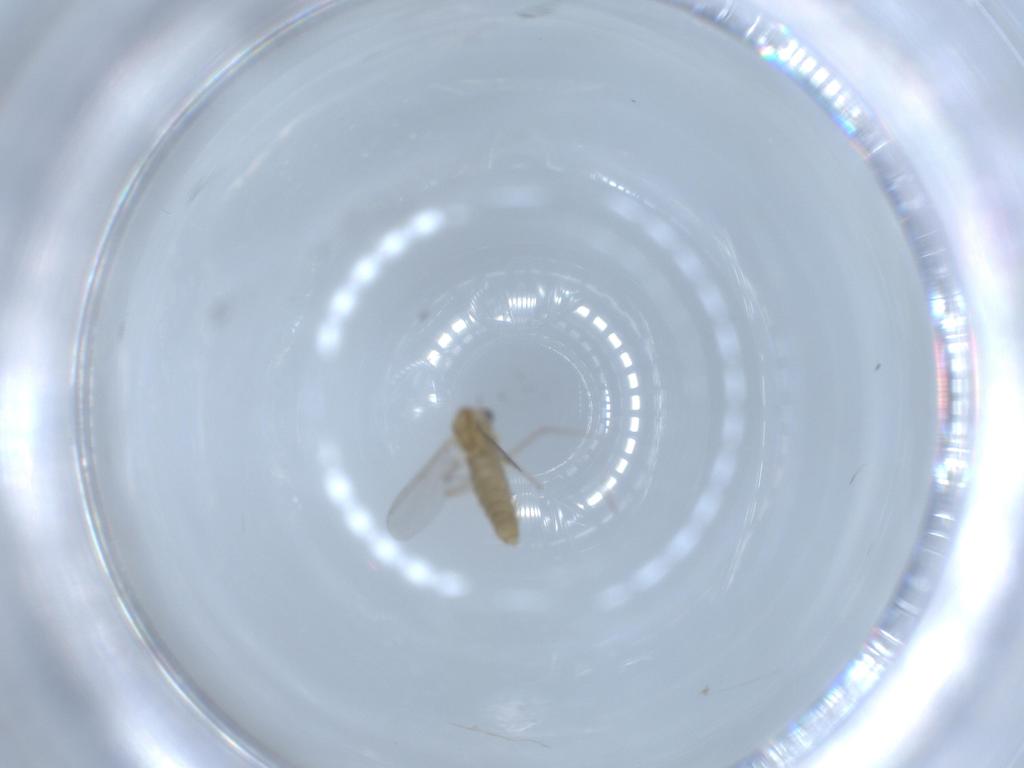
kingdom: Animalia
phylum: Arthropoda
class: Insecta
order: Diptera
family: Chironomidae
